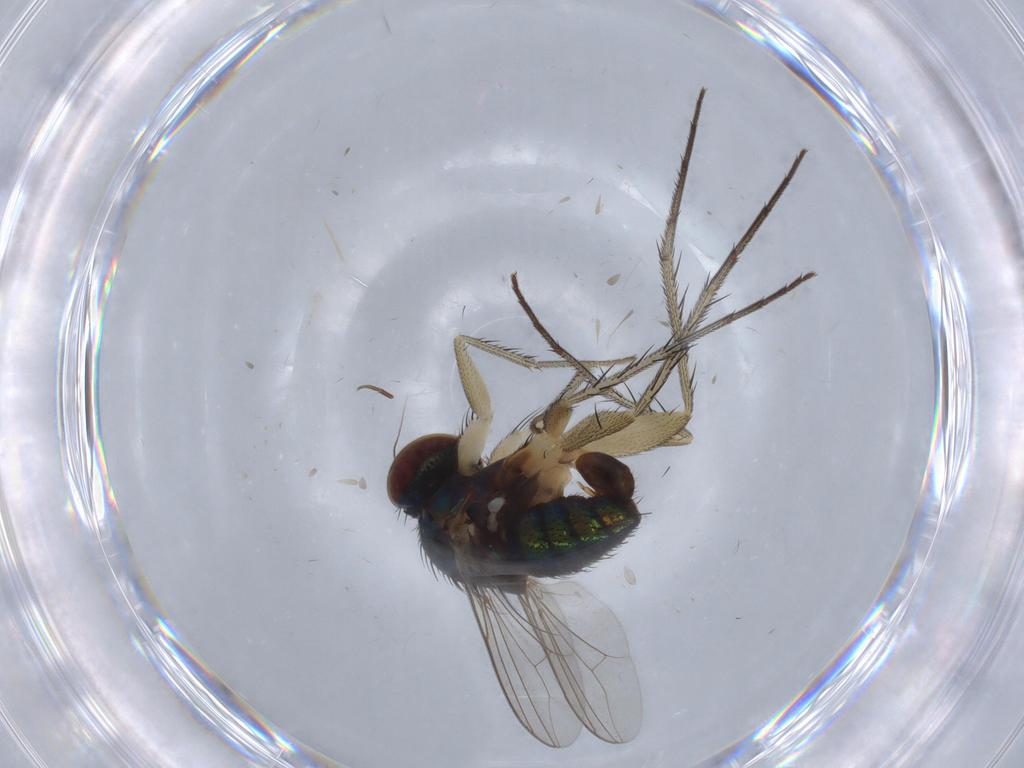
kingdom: Animalia
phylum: Arthropoda
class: Insecta
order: Diptera
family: Dolichopodidae
